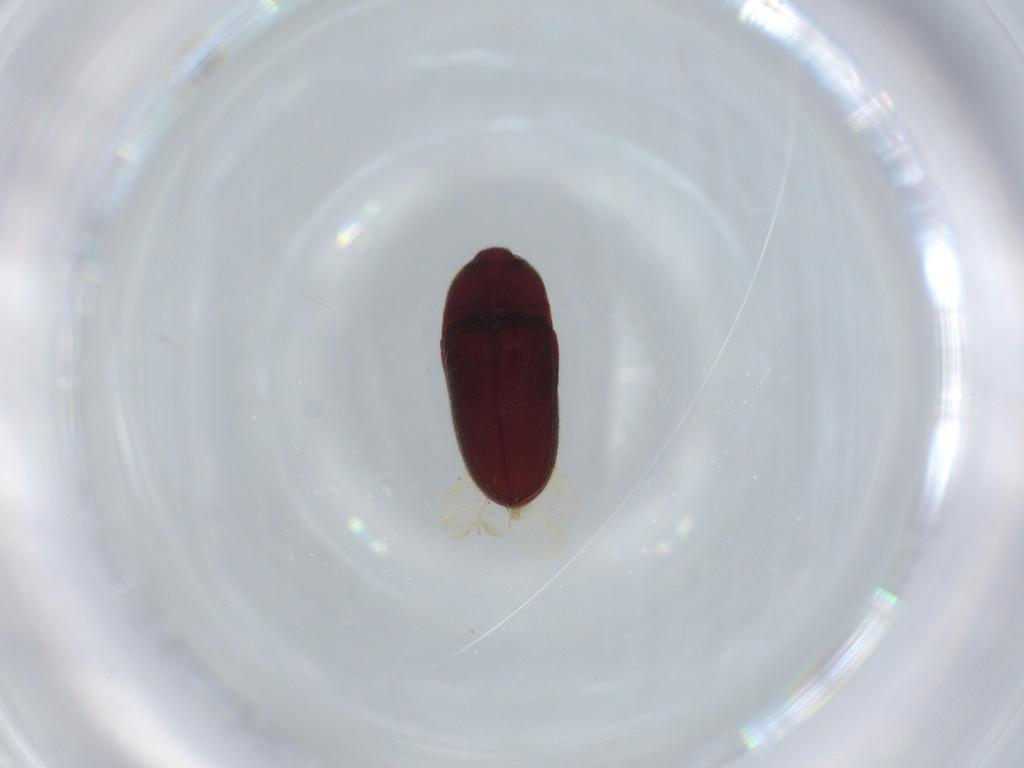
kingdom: Animalia
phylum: Arthropoda
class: Insecta
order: Coleoptera
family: Throscidae
